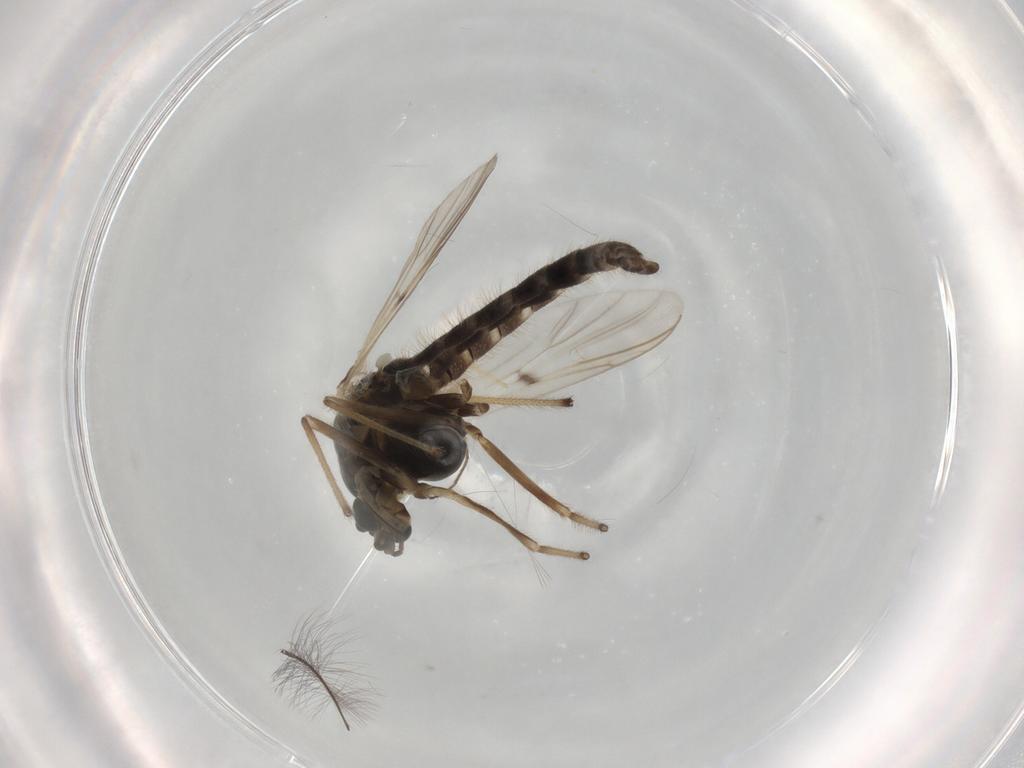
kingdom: Animalia
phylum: Arthropoda
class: Insecta
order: Diptera
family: Chironomidae
